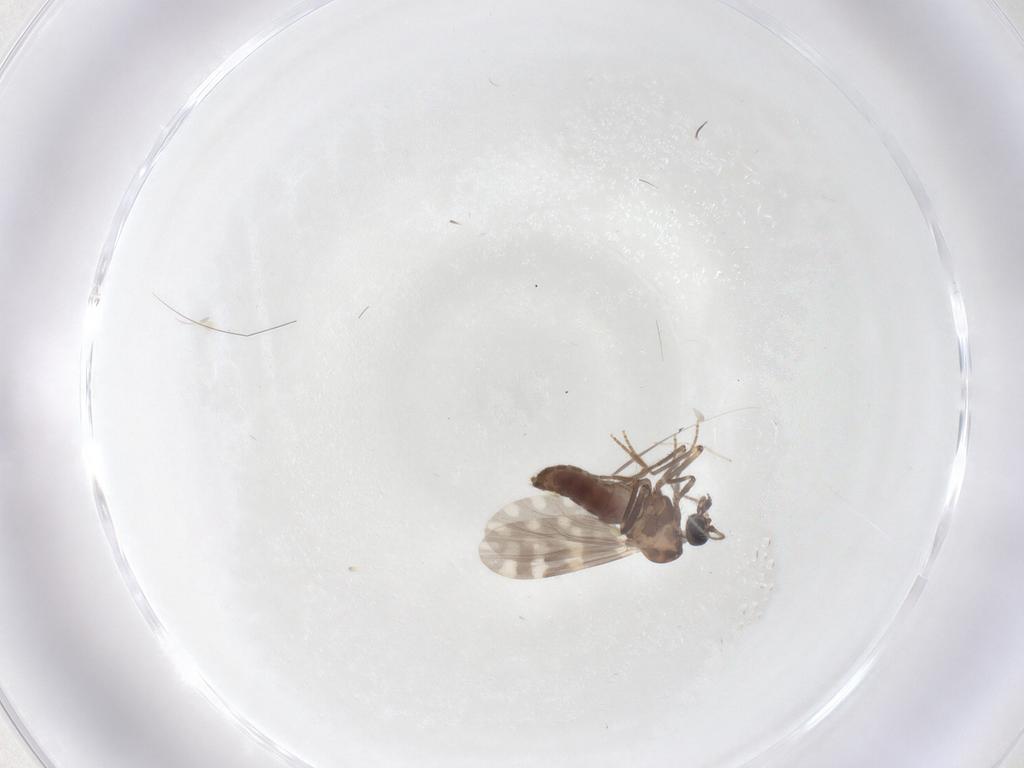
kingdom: Animalia
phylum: Arthropoda
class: Insecta
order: Diptera
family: Ceratopogonidae
